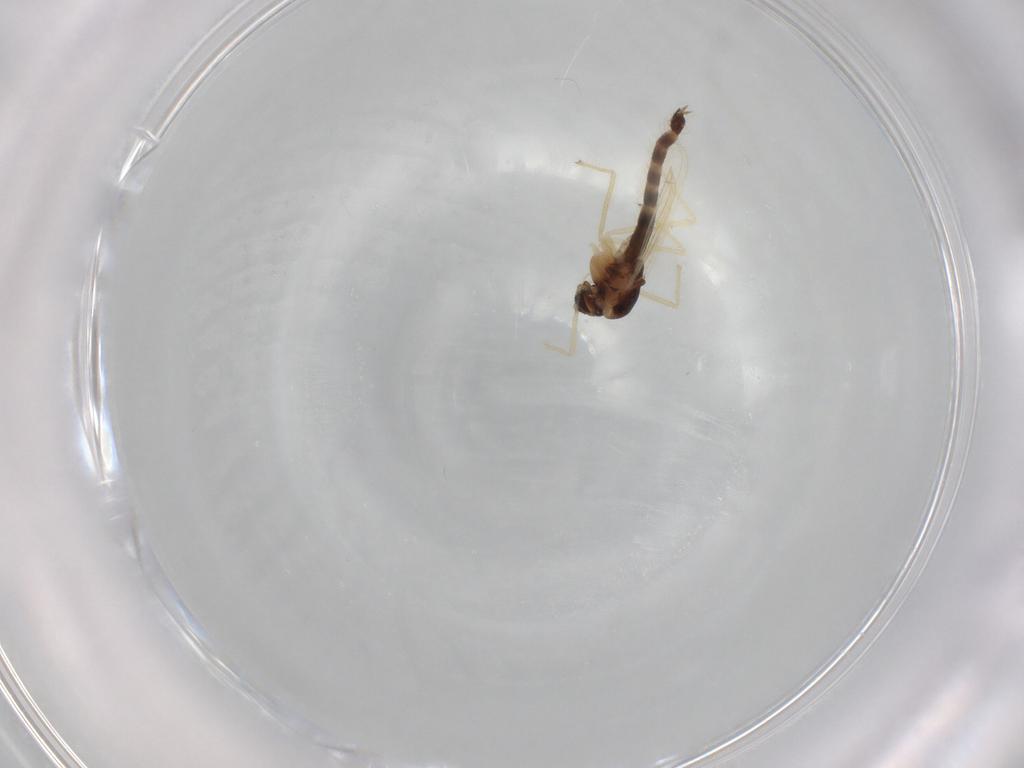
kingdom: Animalia
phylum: Arthropoda
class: Insecta
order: Diptera
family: Chironomidae
